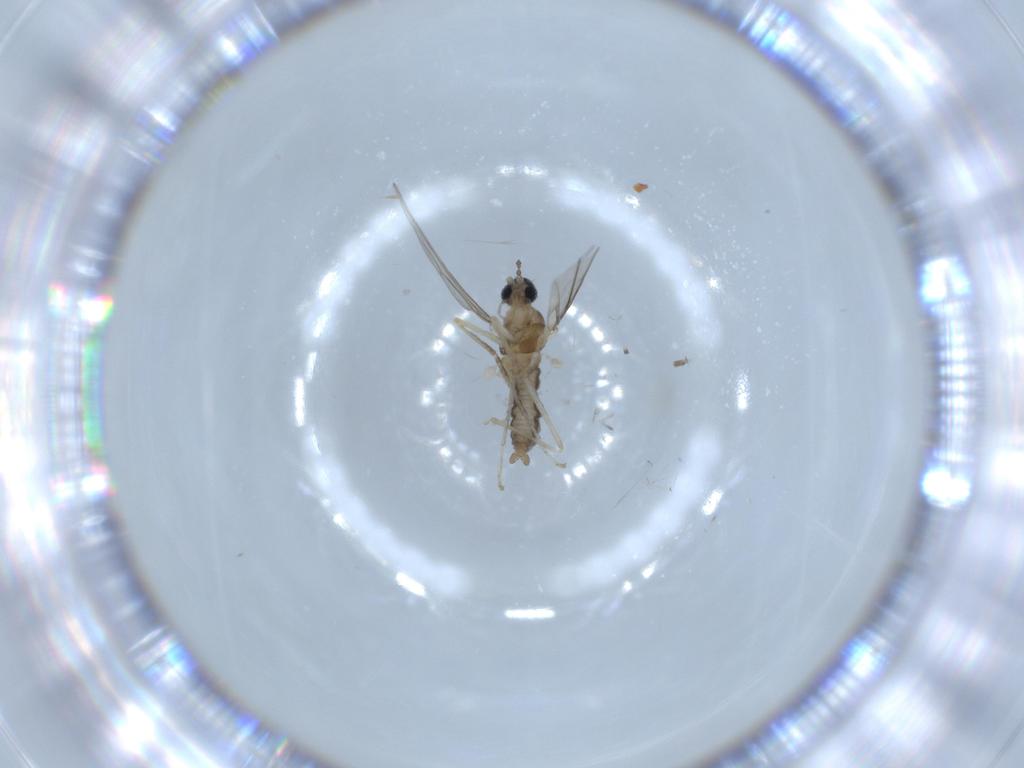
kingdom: Animalia
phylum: Arthropoda
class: Insecta
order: Diptera
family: Cecidomyiidae
